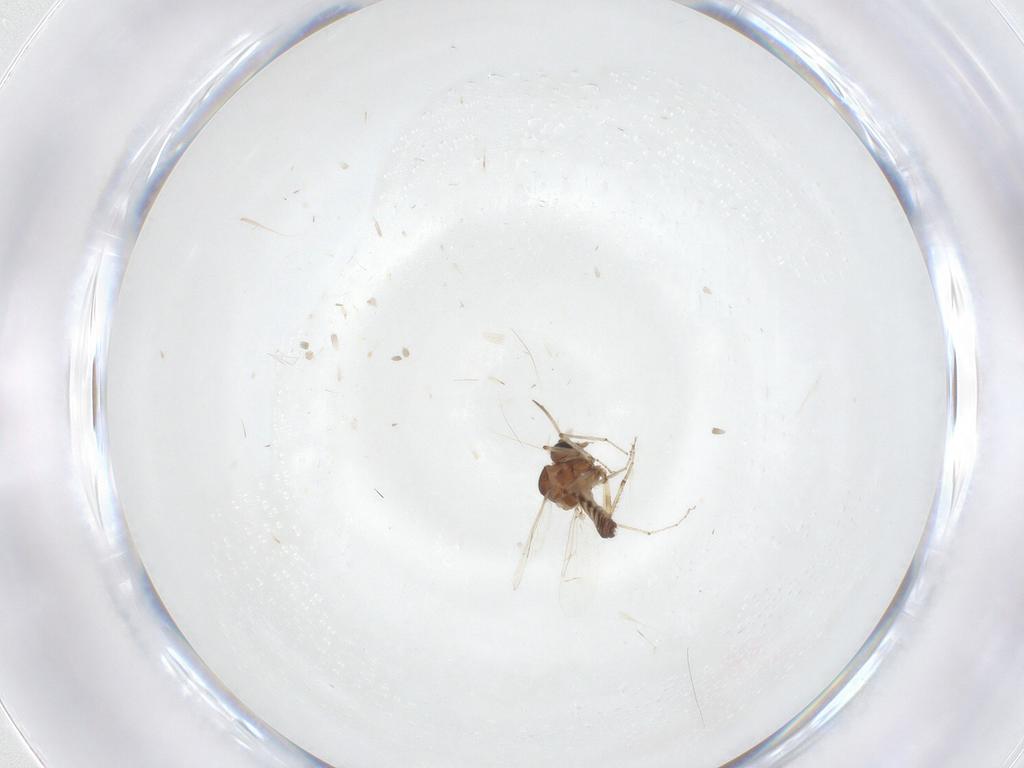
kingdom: Animalia
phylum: Arthropoda
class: Insecta
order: Diptera
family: Ceratopogonidae
